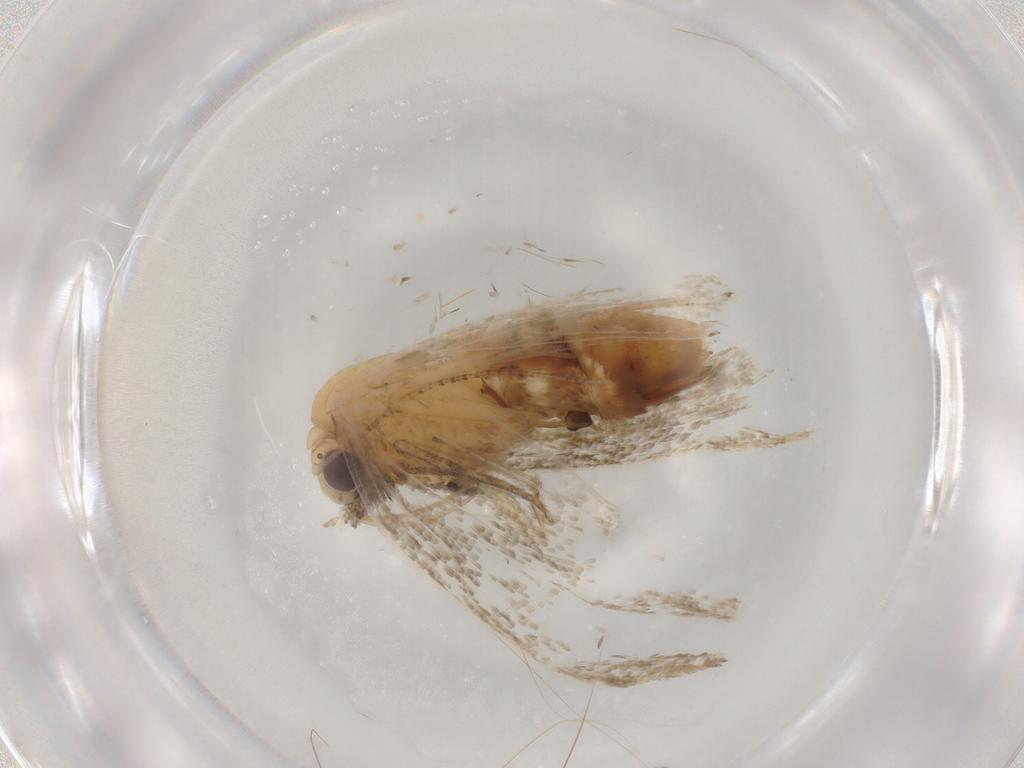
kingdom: Animalia
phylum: Arthropoda
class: Insecta
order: Lepidoptera
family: Erebidae
